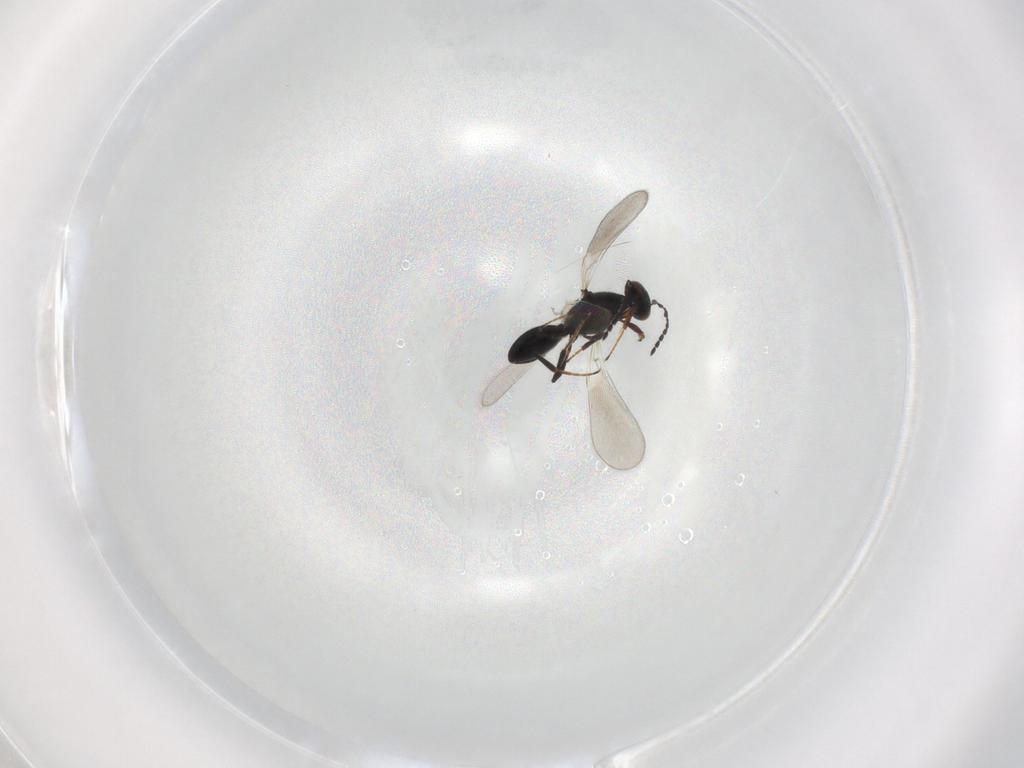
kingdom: Animalia
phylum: Arthropoda
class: Insecta
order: Hymenoptera
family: Platygastridae
